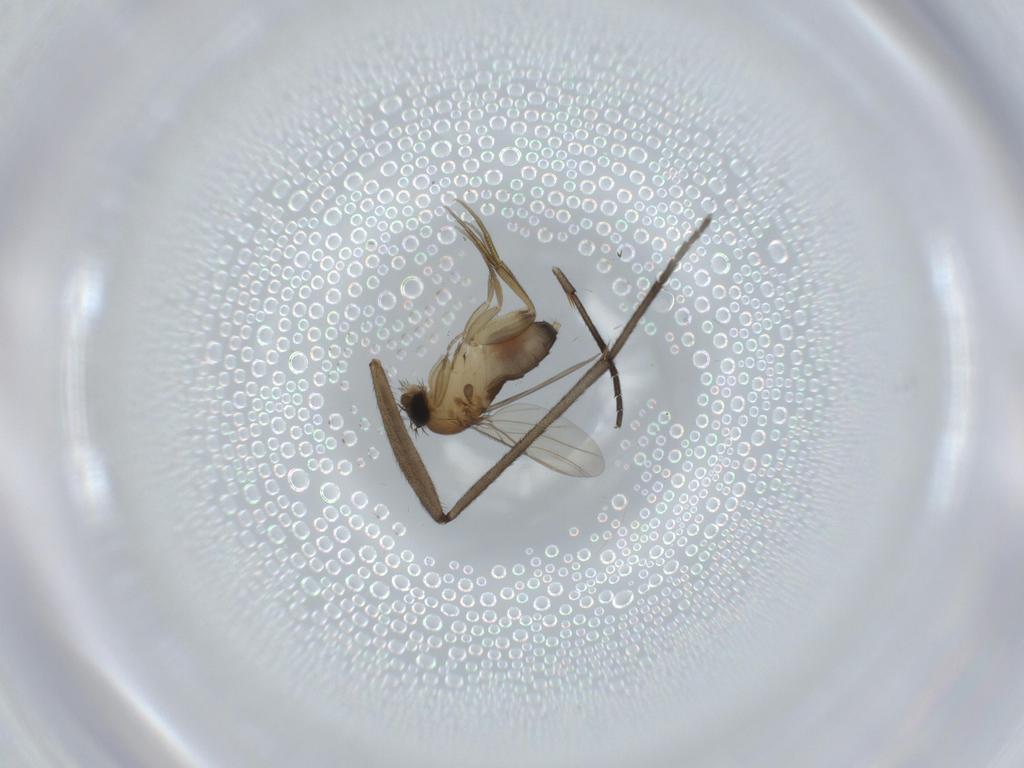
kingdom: Animalia
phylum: Arthropoda
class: Insecta
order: Diptera
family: Sciaridae
